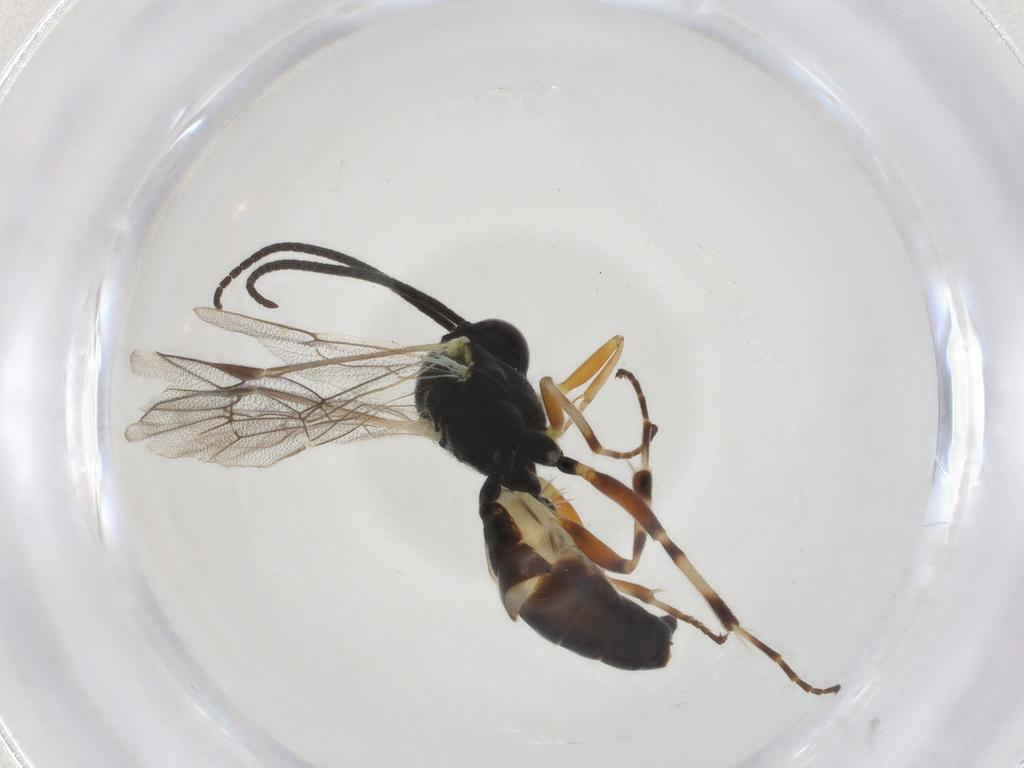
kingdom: Animalia
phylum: Arthropoda
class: Insecta
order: Hymenoptera
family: Ichneumonidae
